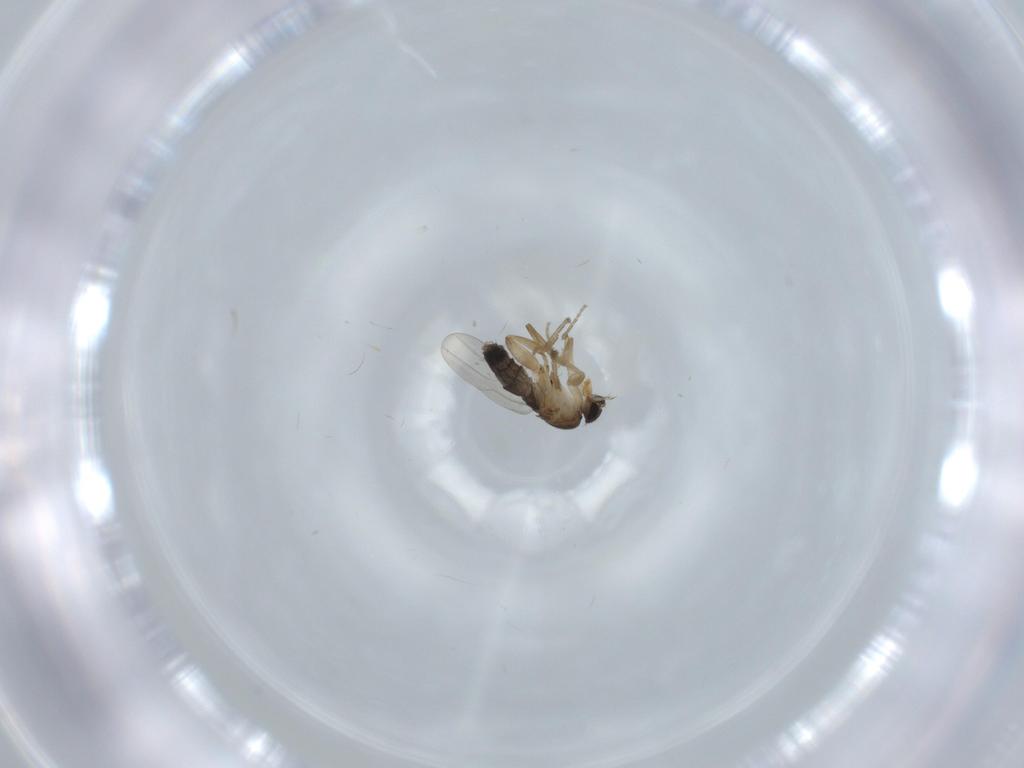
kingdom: Animalia
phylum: Arthropoda
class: Insecta
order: Diptera
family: Phoridae
